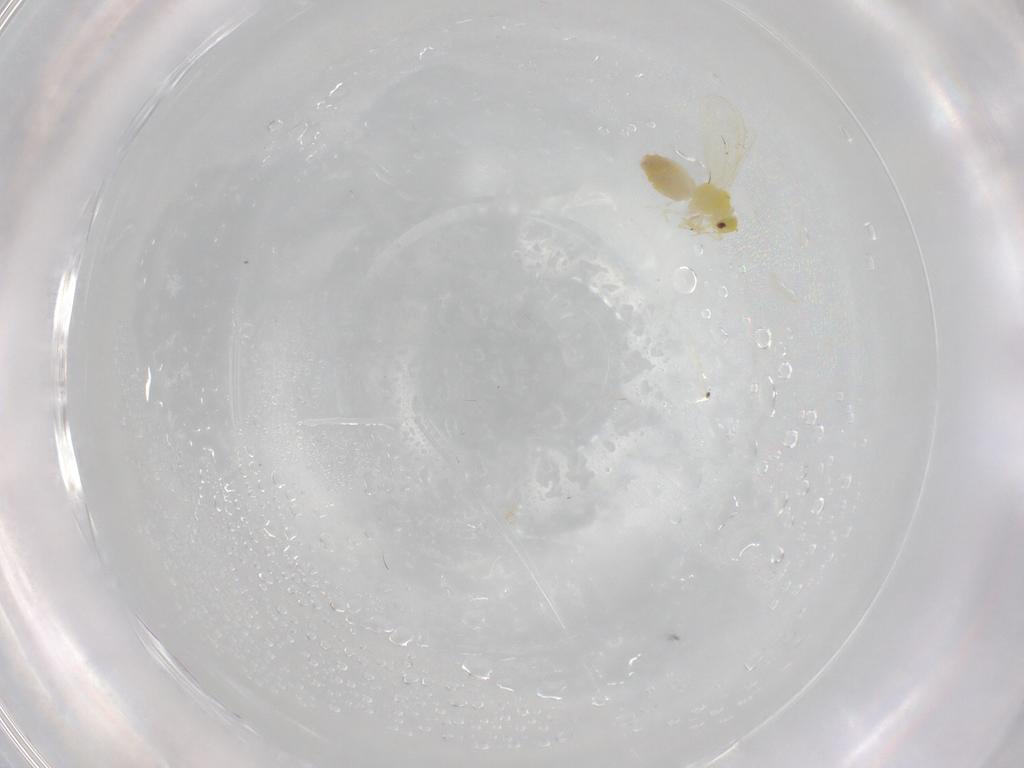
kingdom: Animalia
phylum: Arthropoda
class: Insecta
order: Hemiptera
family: Aleyrodidae
